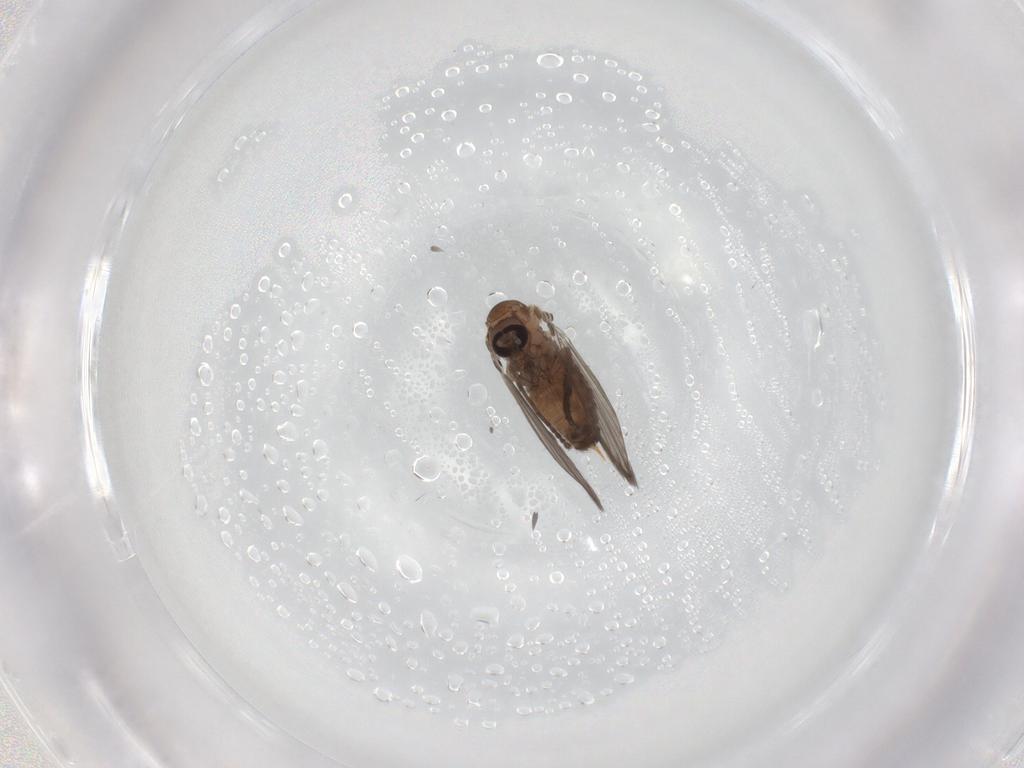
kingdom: Animalia
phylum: Arthropoda
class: Insecta
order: Diptera
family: Psychodidae
